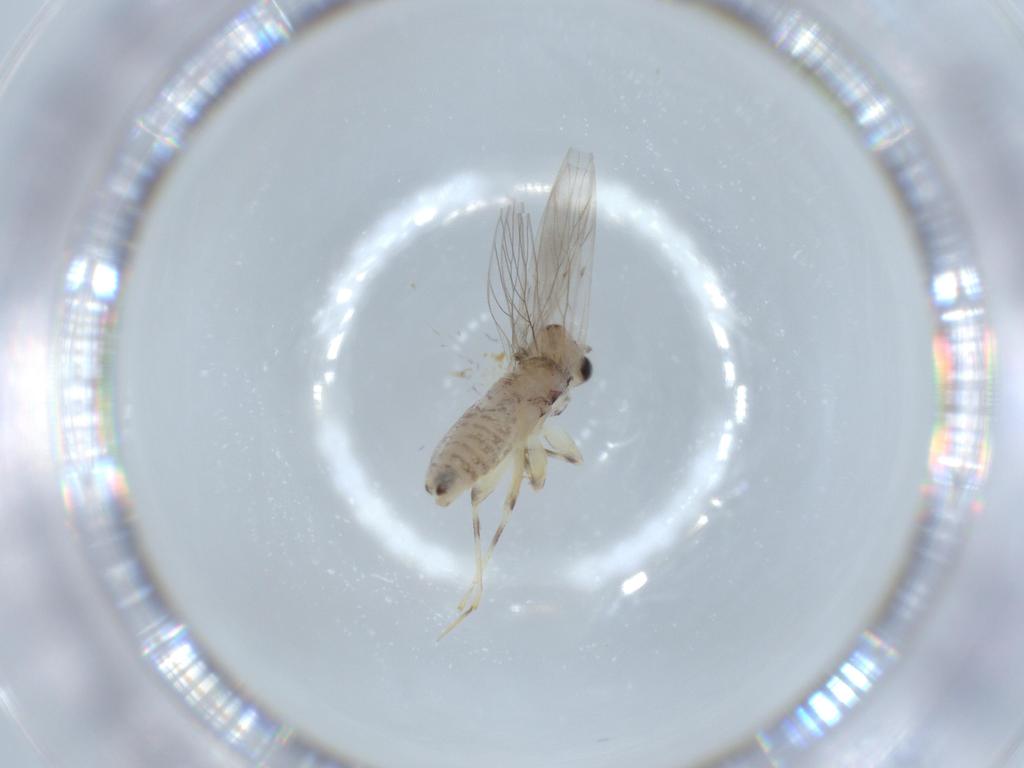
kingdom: Animalia
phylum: Arthropoda
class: Insecta
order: Psocodea
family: Lepidopsocidae
